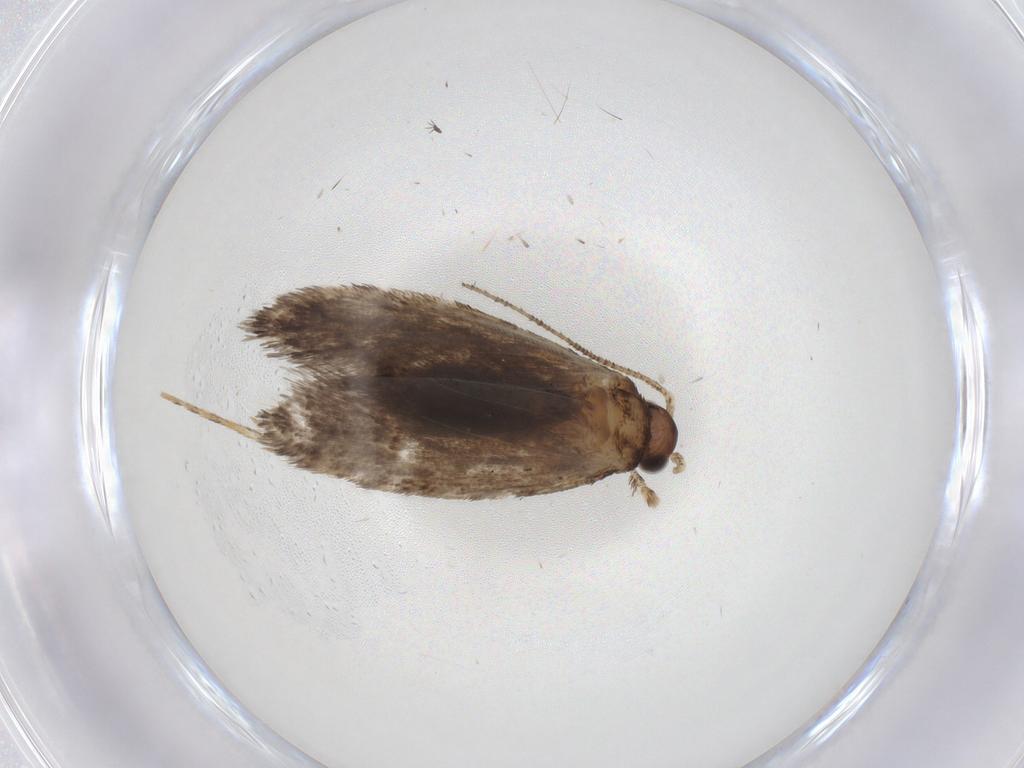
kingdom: Animalia
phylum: Arthropoda
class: Insecta
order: Lepidoptera
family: Dryadaulidae
